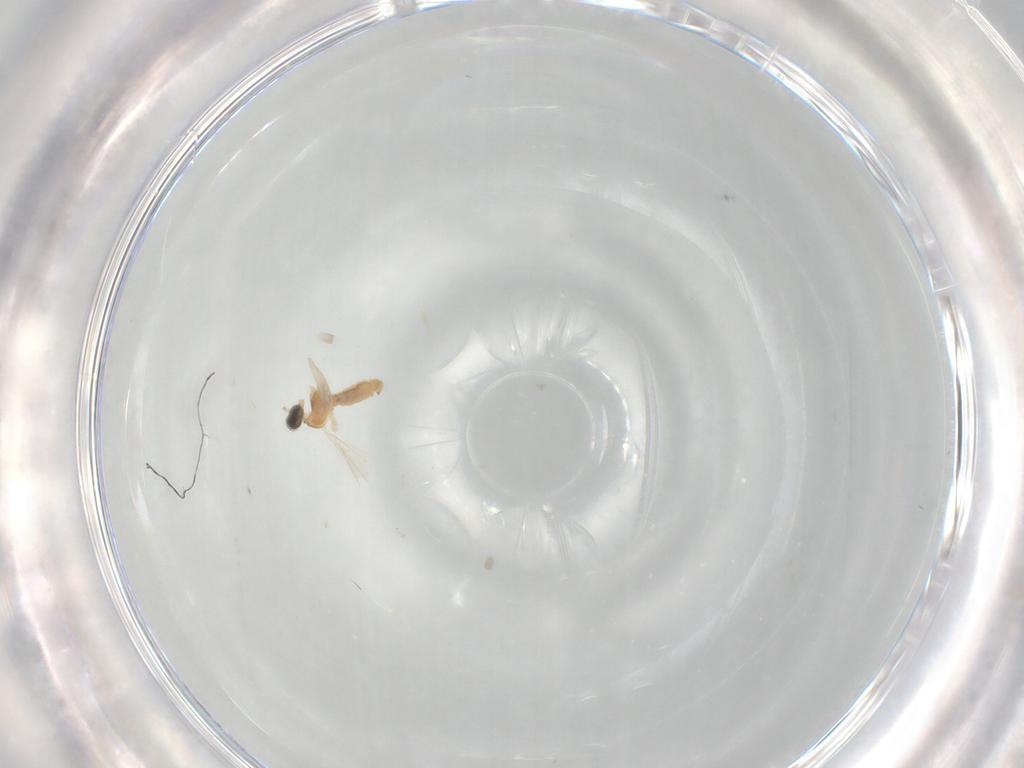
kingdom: Animalia
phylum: Arthropoda
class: Insecta
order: Diptera
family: Cecidomyiidae
